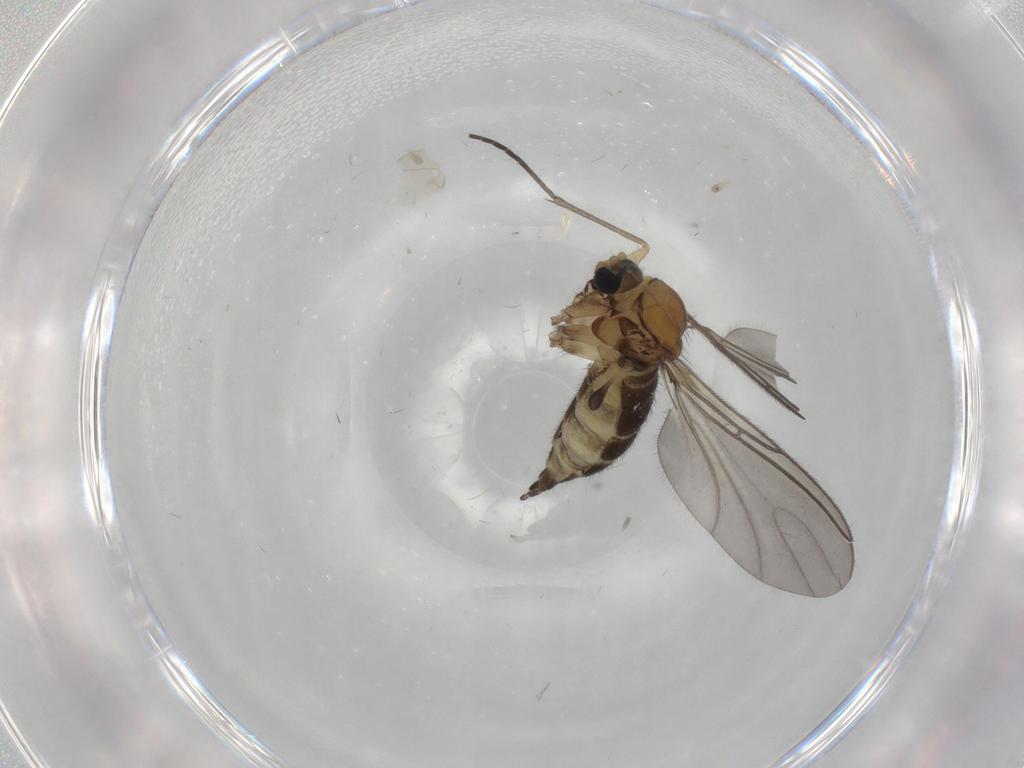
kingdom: Animalia
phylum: Arthropoda
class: Insecta
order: Diptera
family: Sciaridae
